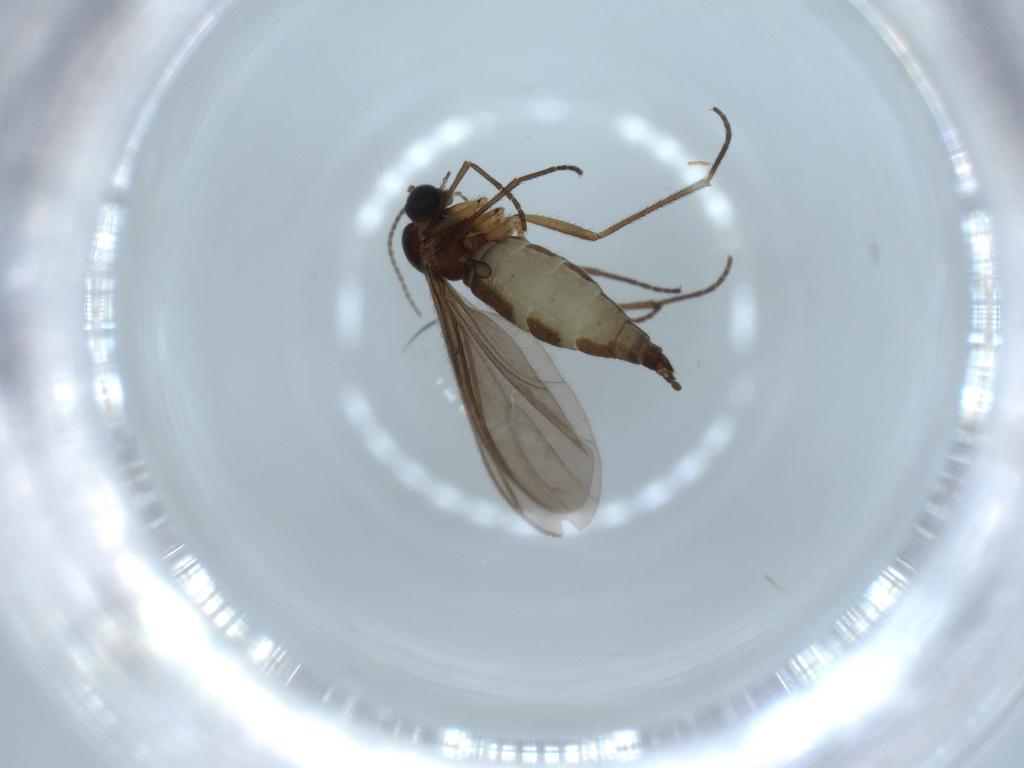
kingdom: Animalia
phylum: Arthropoda
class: Insecta
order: Diptera
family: Sciaridae
